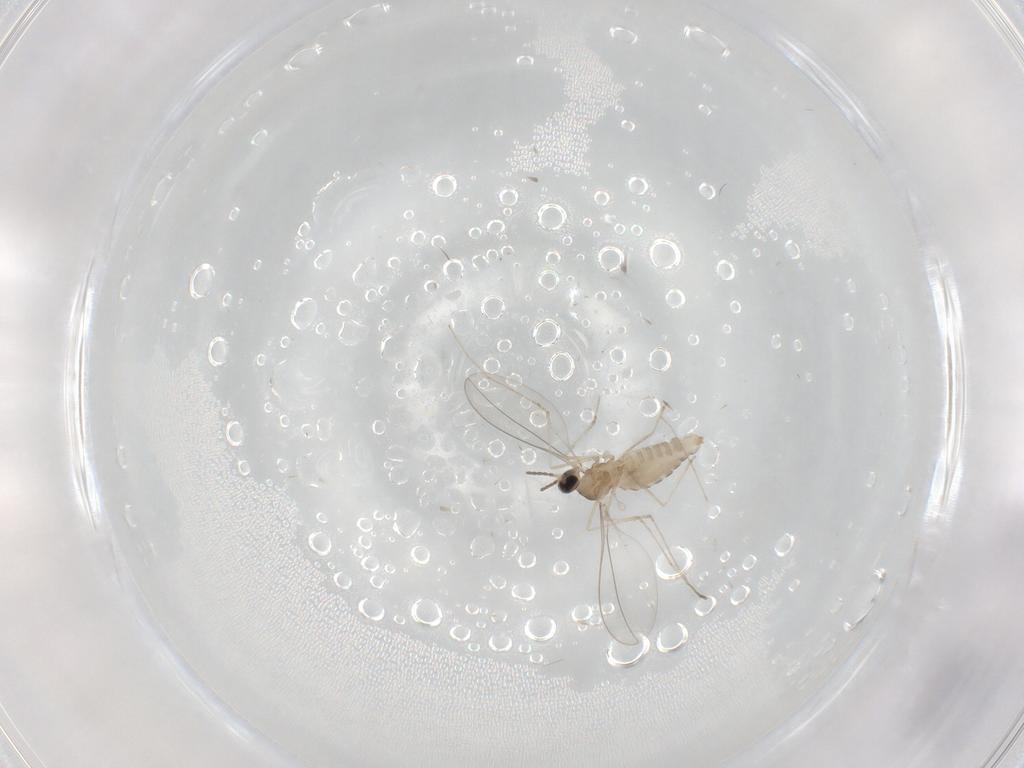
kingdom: Animalia
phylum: Arthropoda
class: Insecta
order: Diptera
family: Cecidomyiidae
